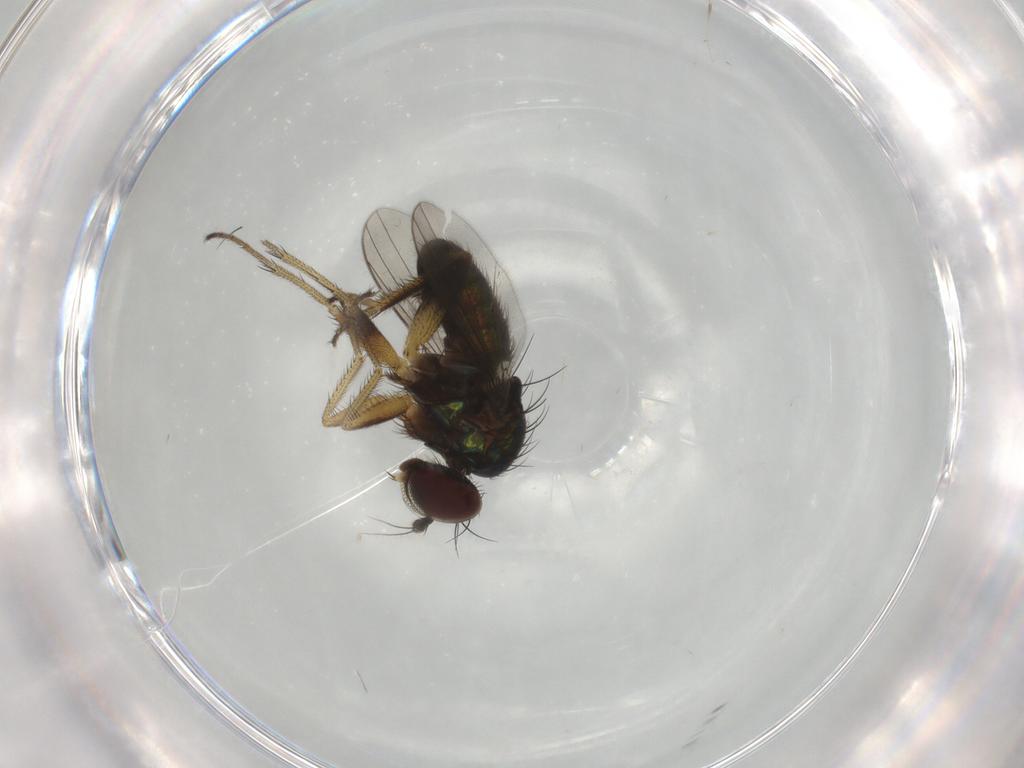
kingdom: Animalia
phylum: Arthropoda
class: Insecta
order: Diptera
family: Dolichopodidae
